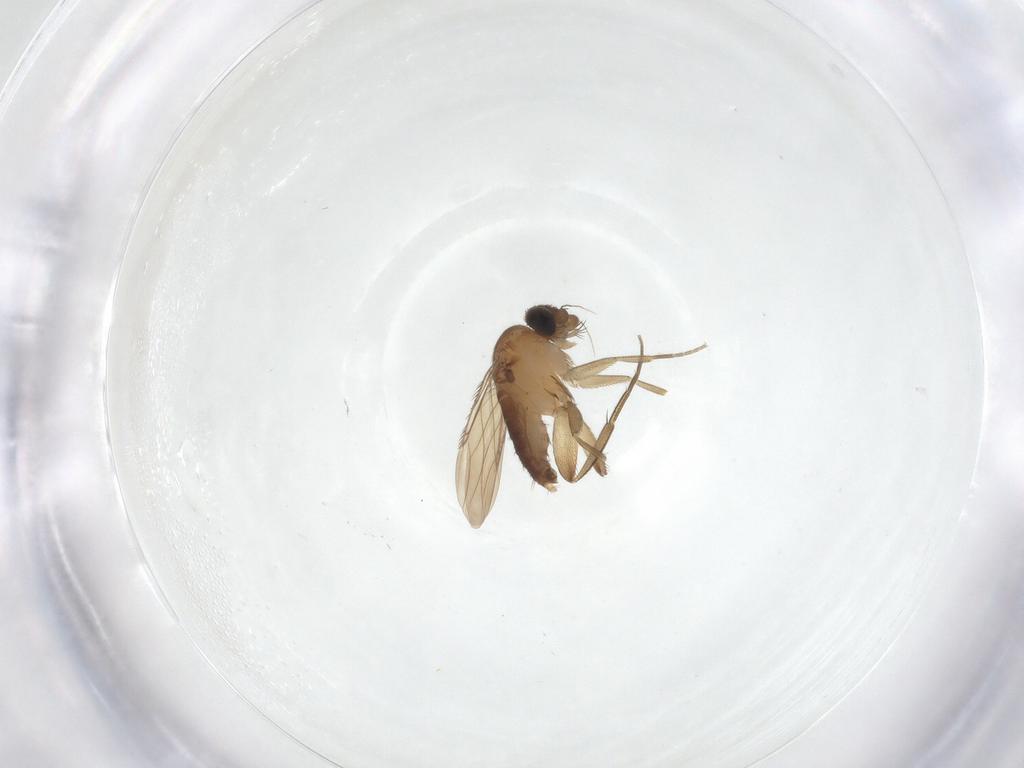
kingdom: Animalia
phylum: Arthropoda
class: Insecta
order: Diptera
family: Phoridae
